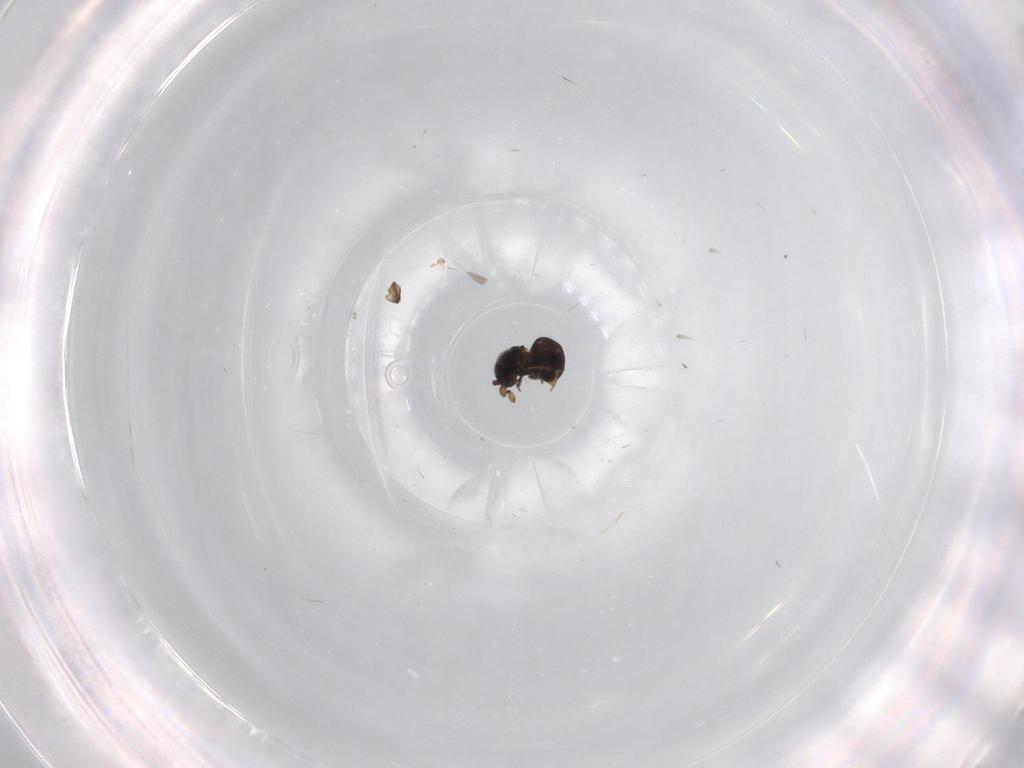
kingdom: Animalia
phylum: Arthropoda
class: Insecta
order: Hymenoptera
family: Scelionidae
